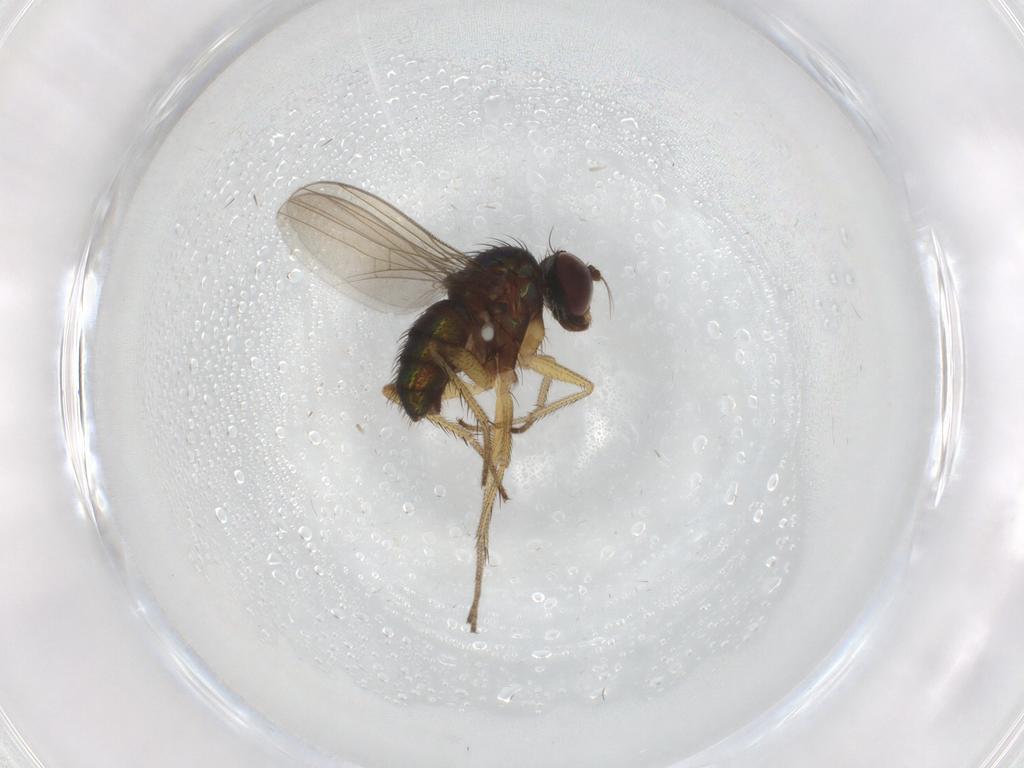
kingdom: Animalia
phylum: Arthropoda
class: Insecta
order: Diptera
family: Dolichopodidae
